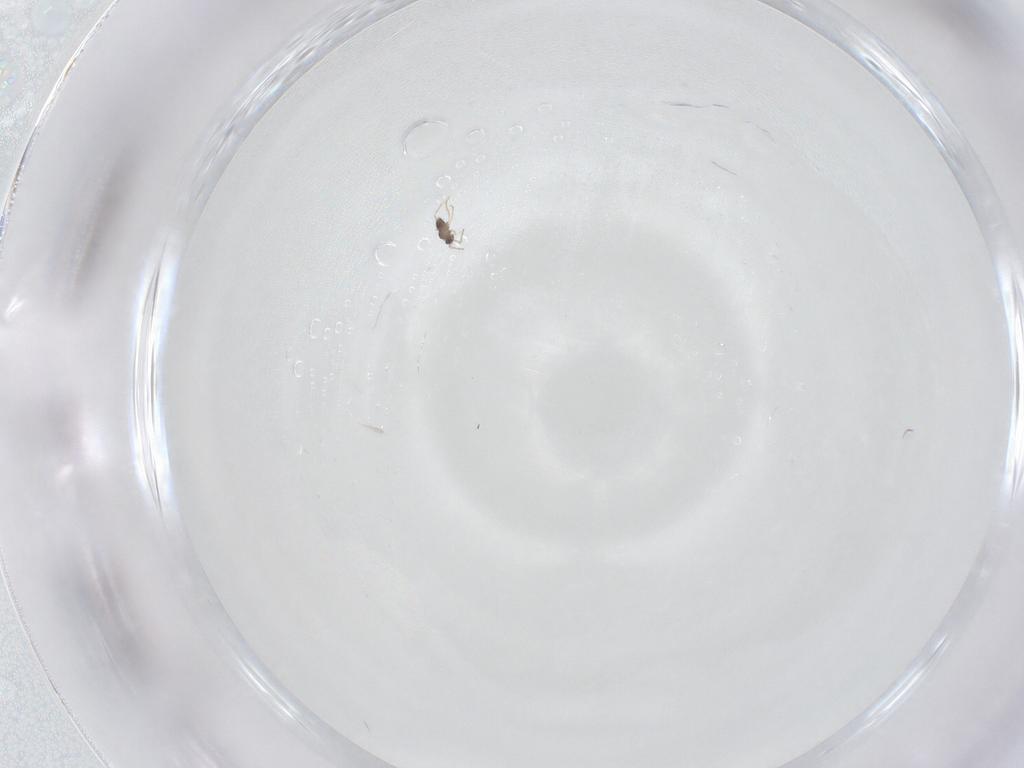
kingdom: Animalia
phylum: Arthropoda
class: Insecta
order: Hymenoptera
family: Mymaridae
